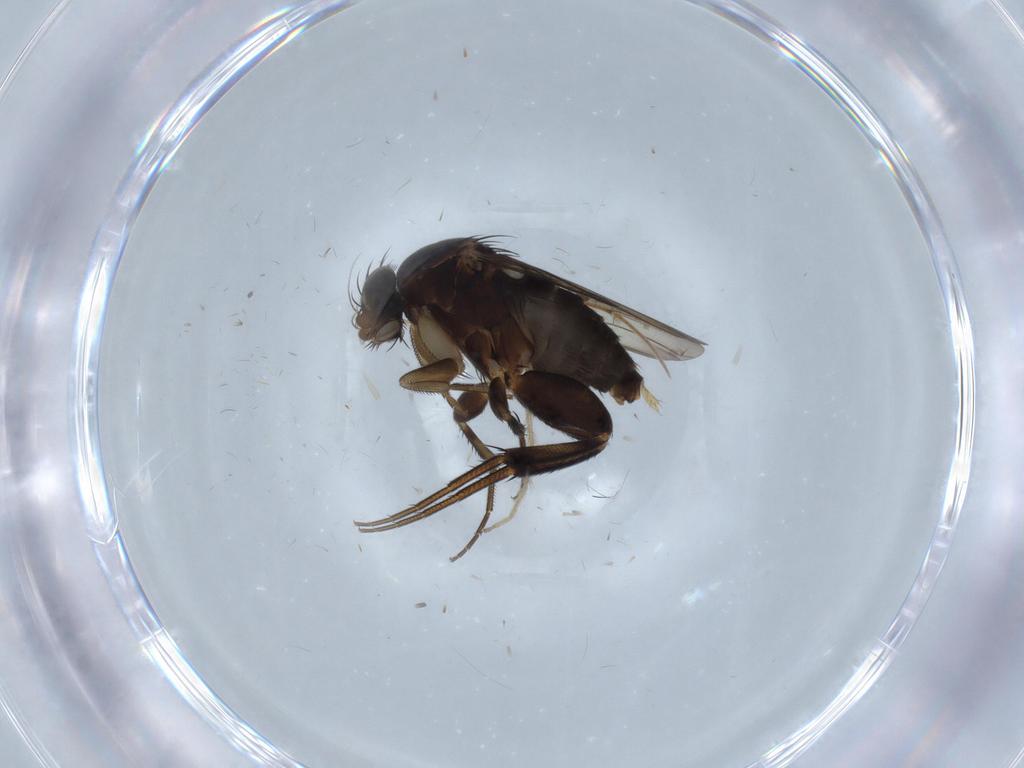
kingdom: Animalia
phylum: Arthropoda
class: Insecta
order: Diptera
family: Phoridae
